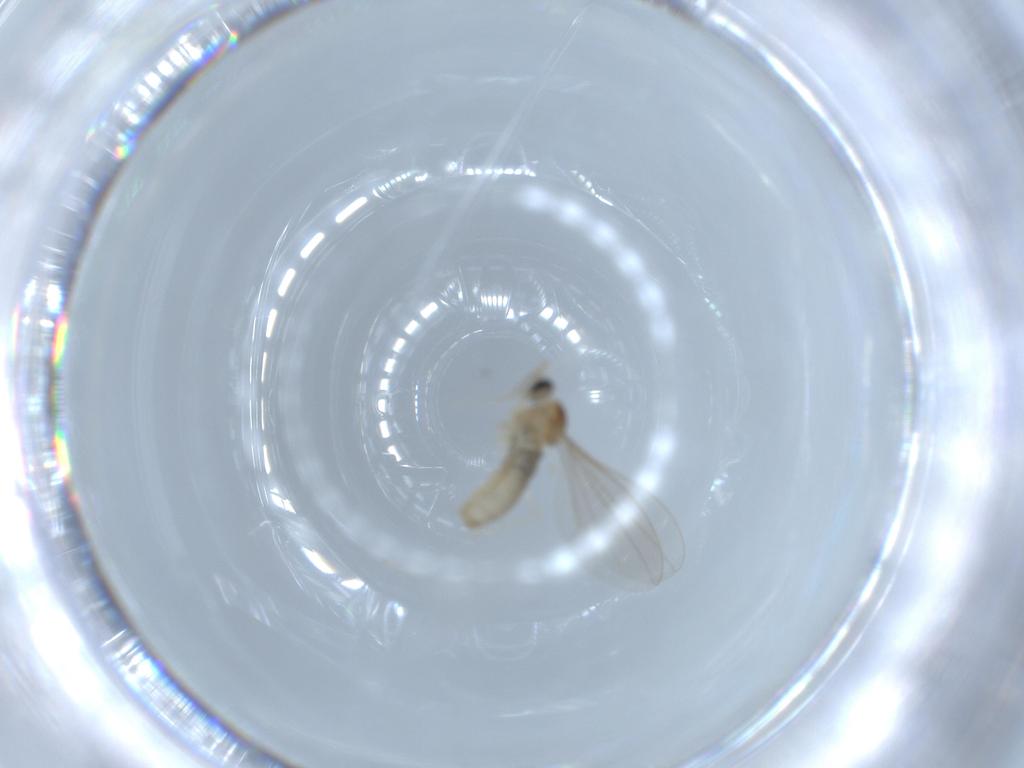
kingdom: Animalia
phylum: Arthropoda
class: Insecta
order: Diptera
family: Cecidomyiidae
